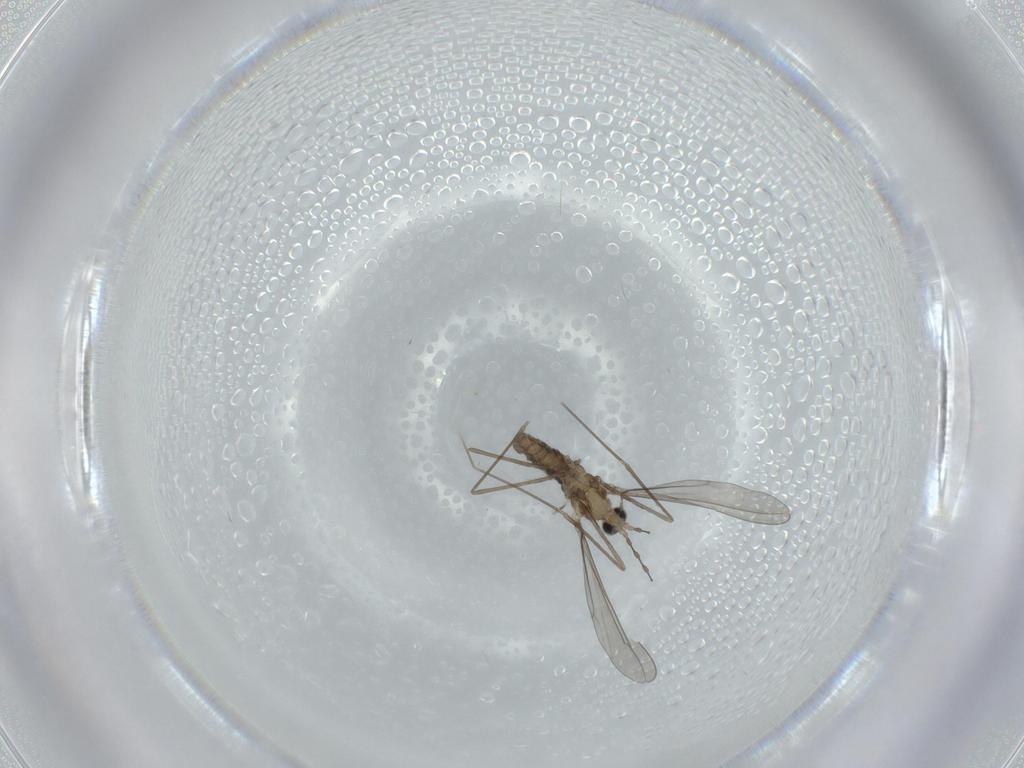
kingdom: Animalia
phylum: Arthropoda
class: Insecta
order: Diptera
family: Cecidomyiidae
